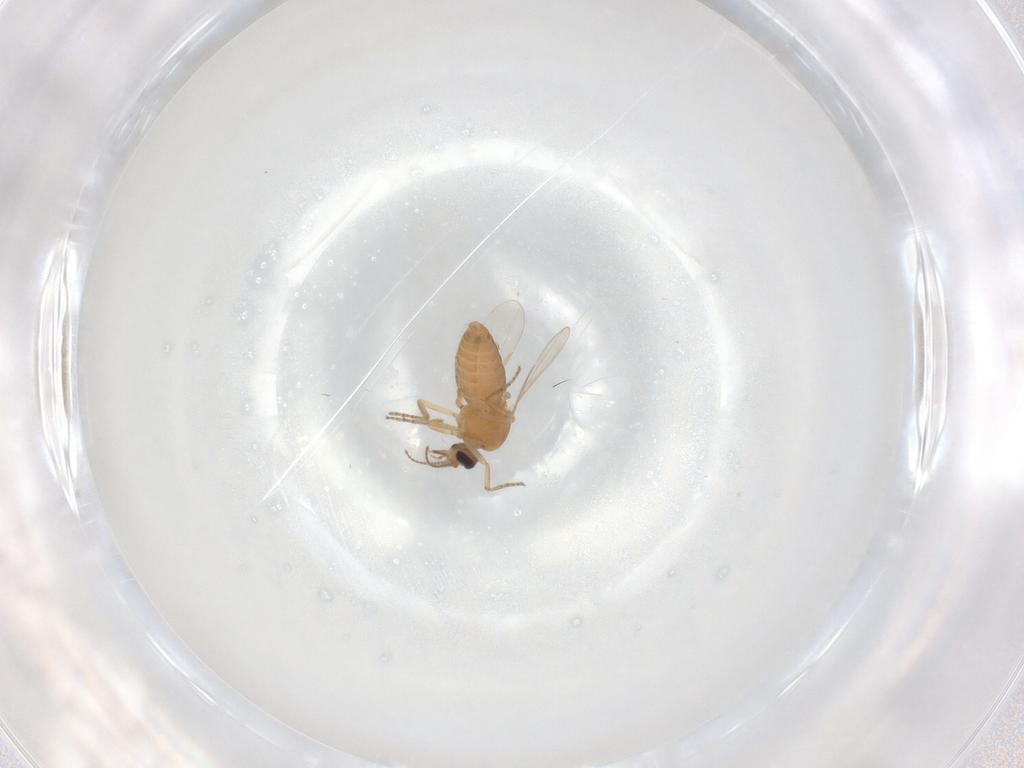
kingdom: Animalia
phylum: Arthropoda
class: Insecta
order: Diptera
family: Ceratopogonidae
